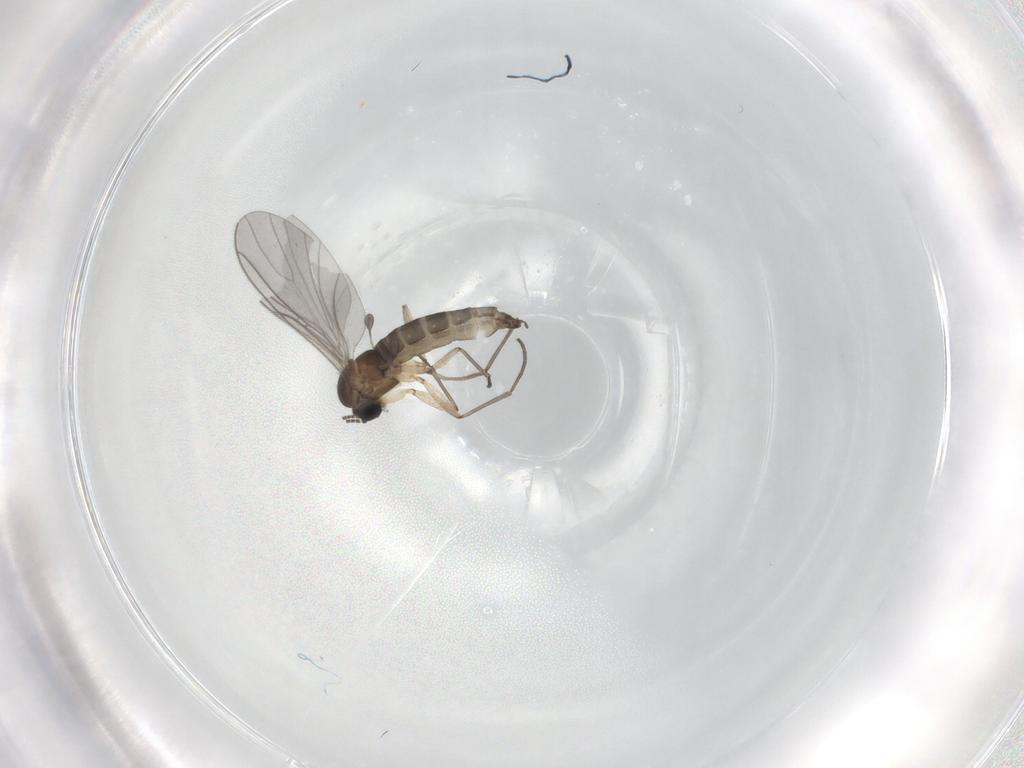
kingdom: Animalia
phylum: Arthropoda
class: Insecta
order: Diptera
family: Sciaridae
